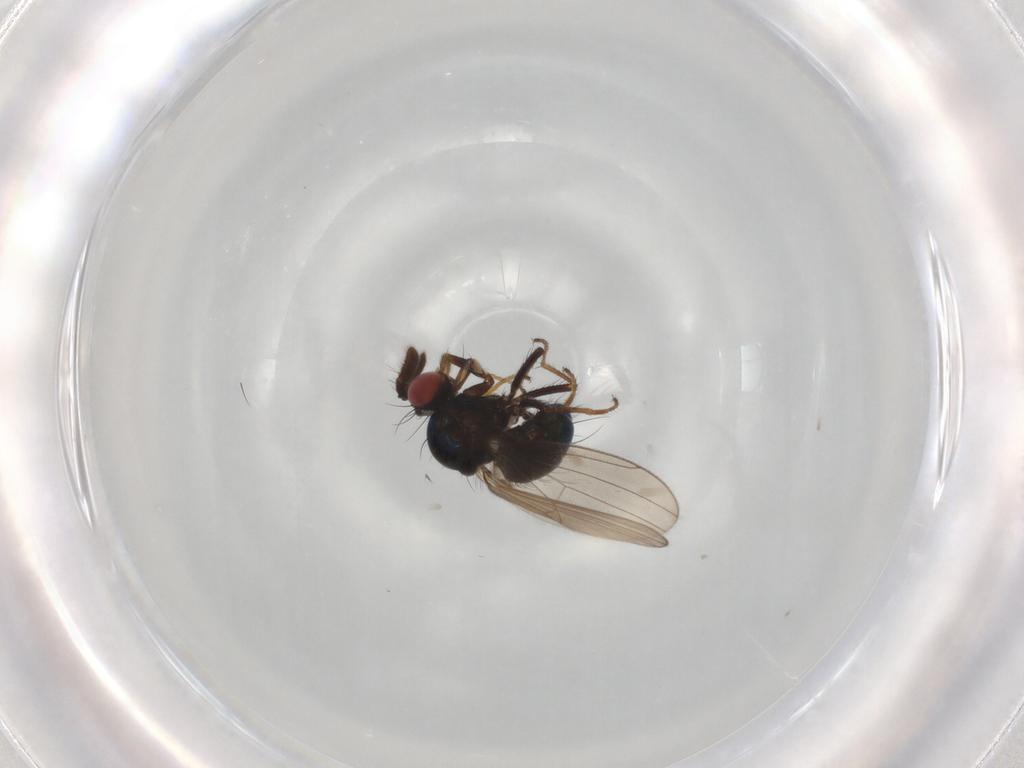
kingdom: Animalia
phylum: Arthropoda
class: Insecta
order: Diptera
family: Ephydridae
